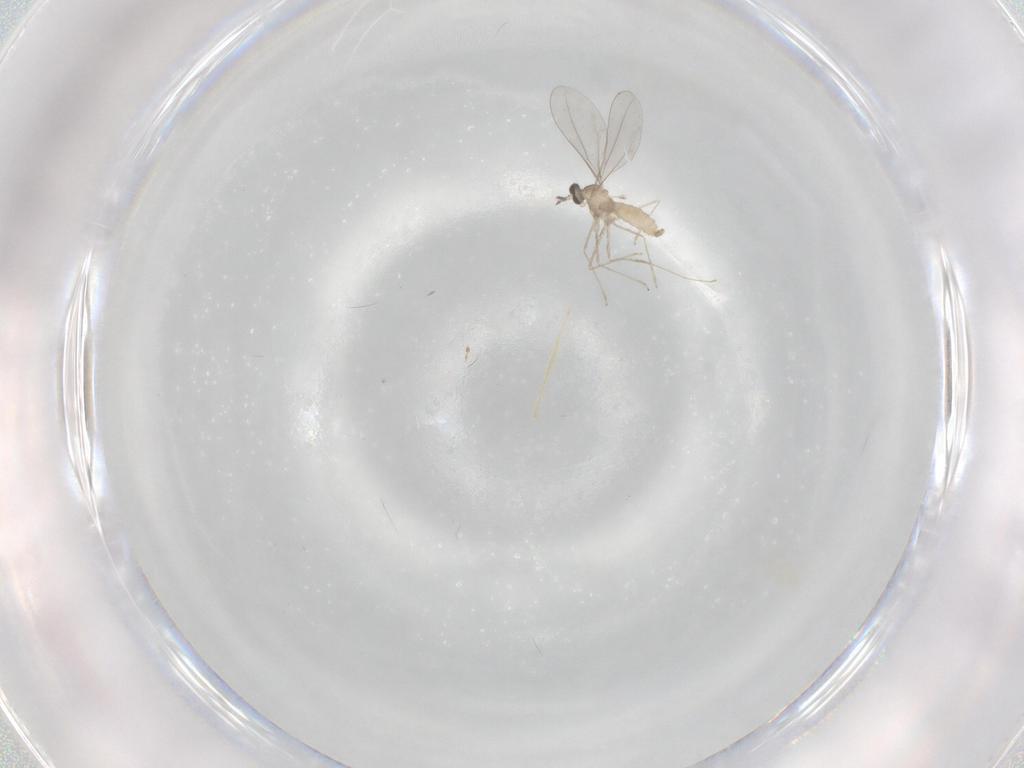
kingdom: Animalia
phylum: Arthropoda
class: Insecta
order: Diptera
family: Cecidomyiidae
